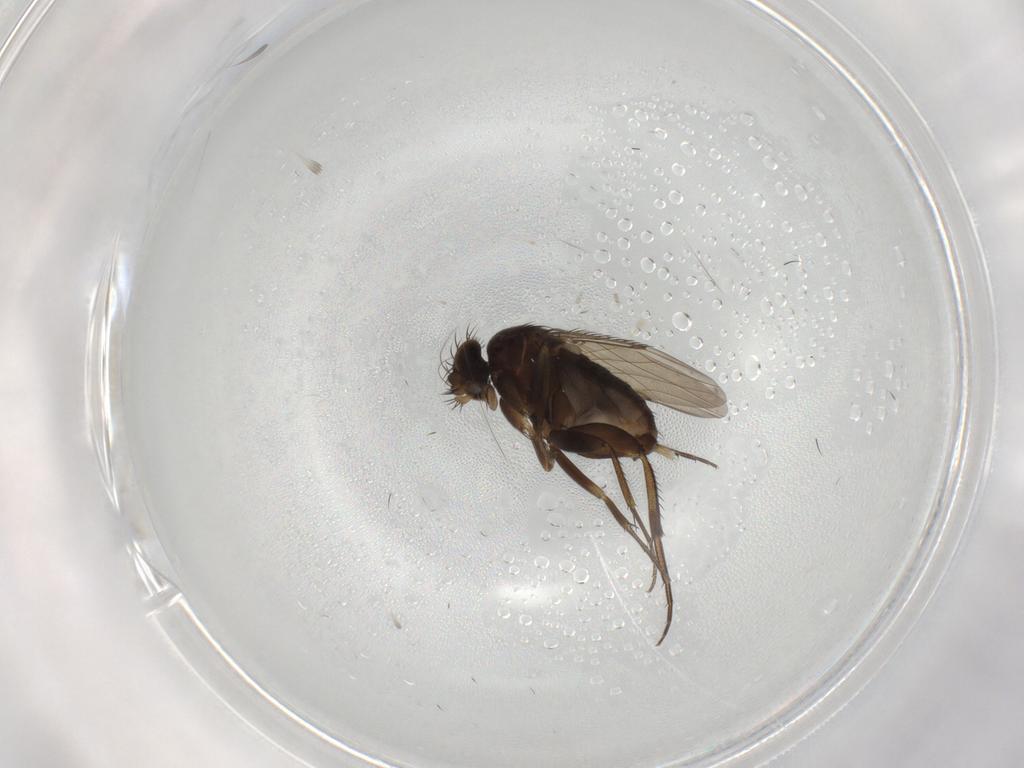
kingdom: Animalia
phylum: Arthropoda
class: Insecta
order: Diptera
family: Phoridae
